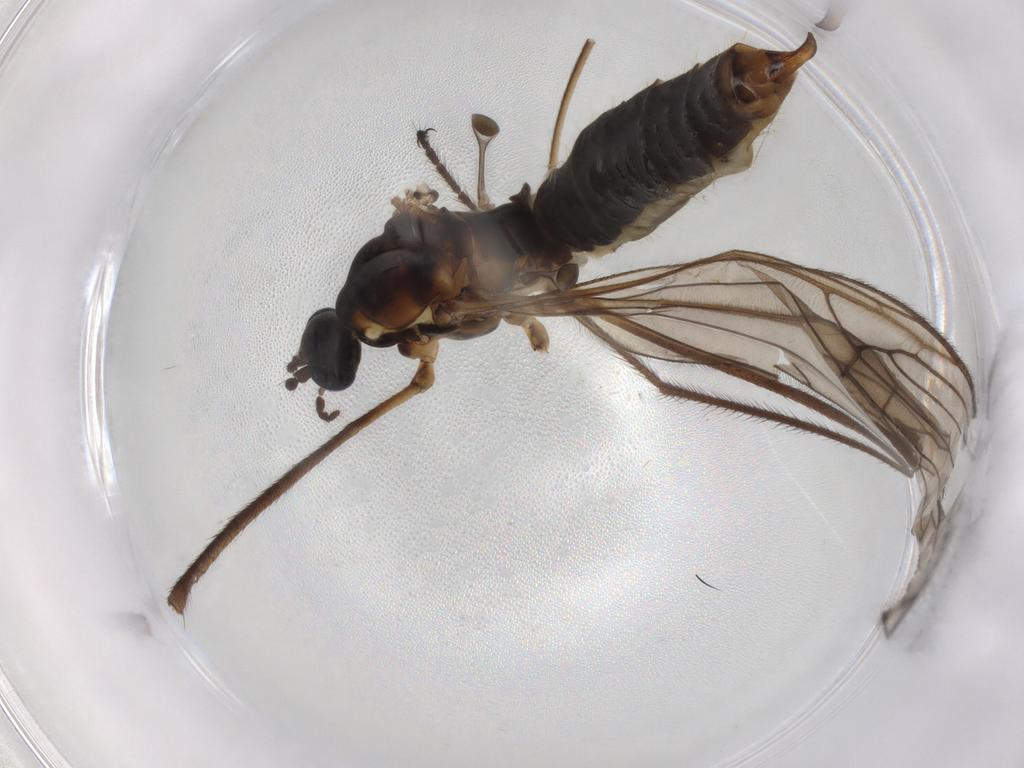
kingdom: Animalia
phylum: Arthropoda
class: Insecta
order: Diptera
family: Limoniidae
